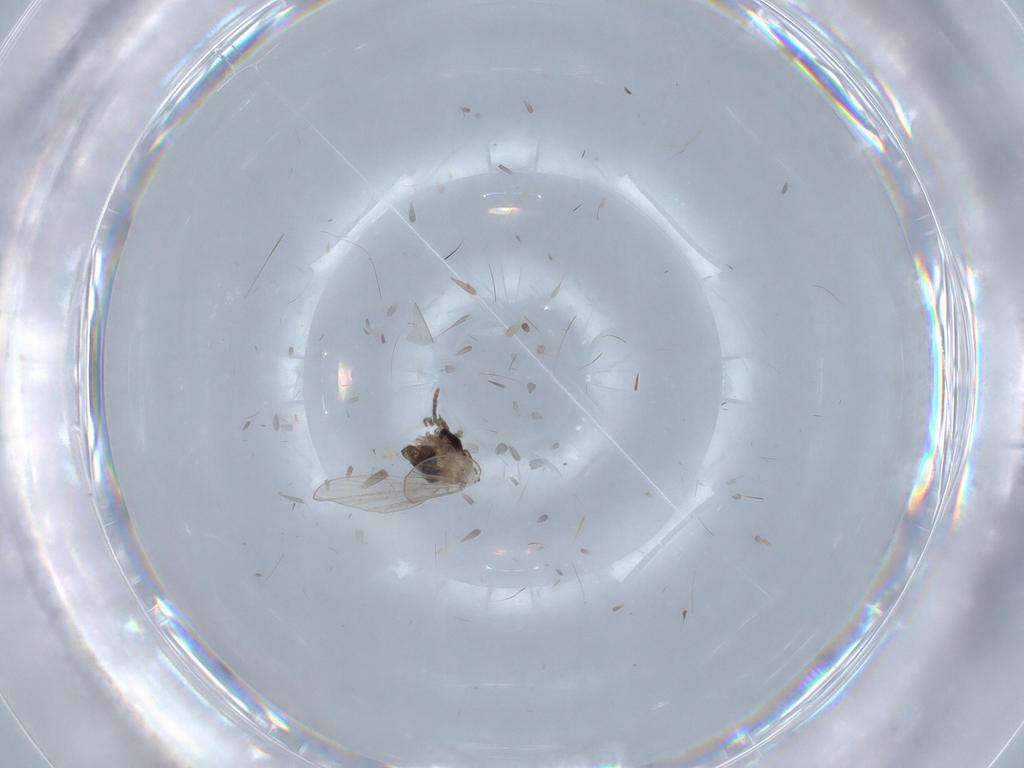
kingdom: Animalia
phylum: Arthropoda
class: Insecta
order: Diptera
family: Psychodidae
